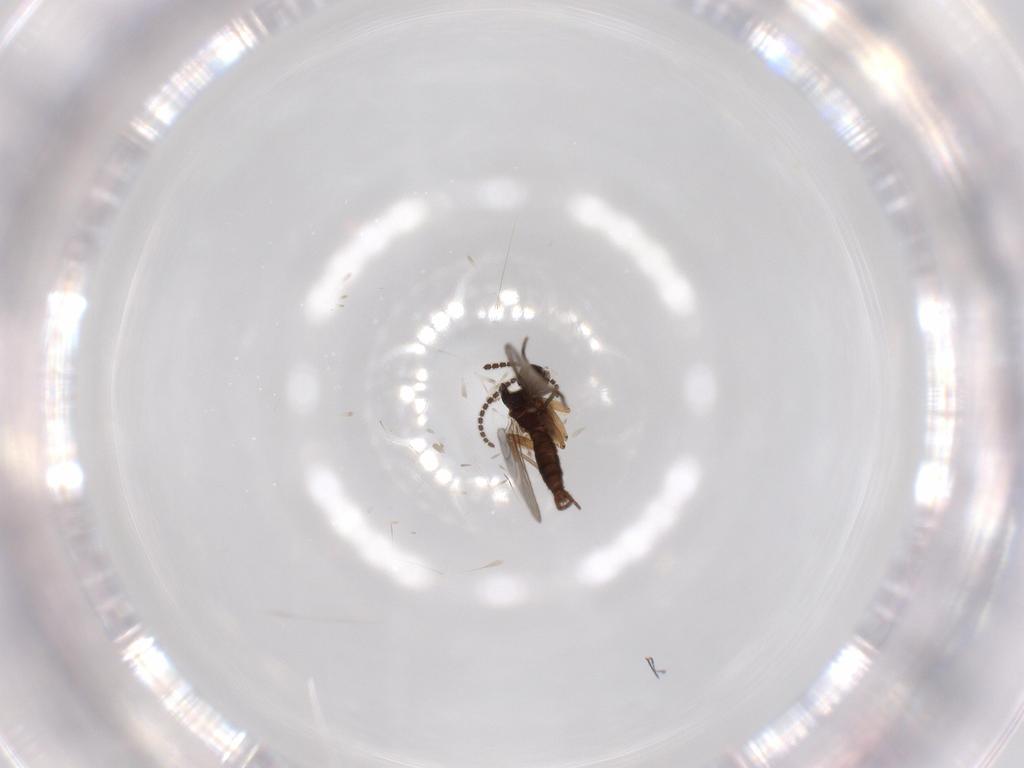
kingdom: Animalia
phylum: Arthropoda
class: Insecta
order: Diptera
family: Sciaridae
